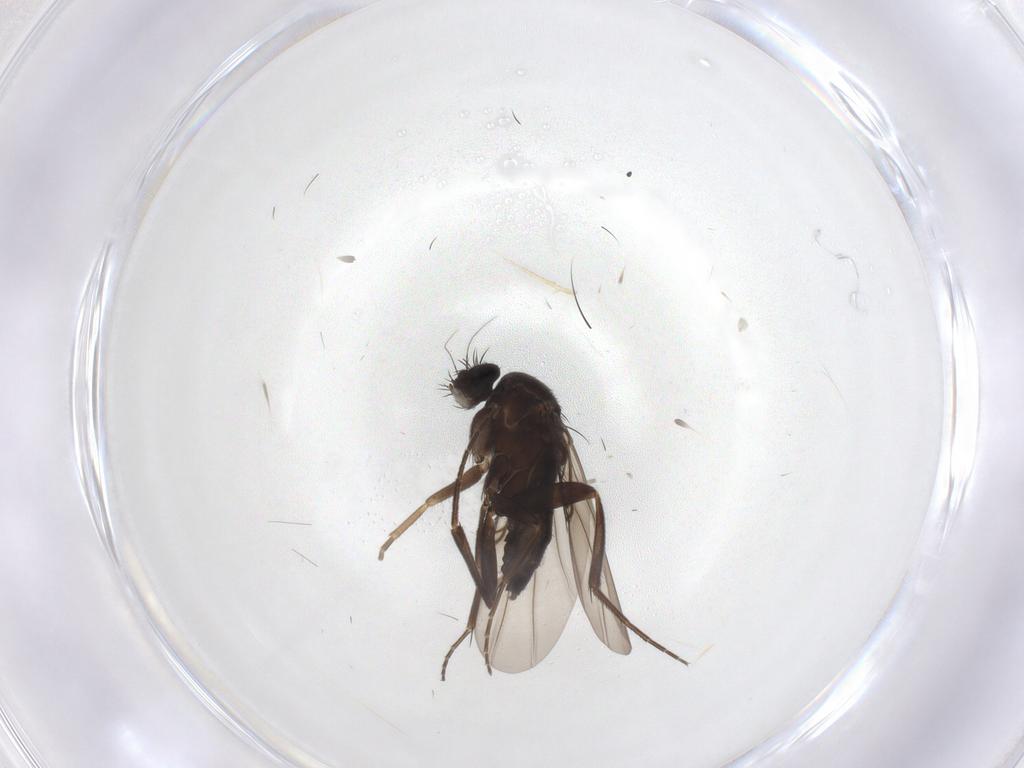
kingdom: Animalia
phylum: Arthropoda
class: Insecta
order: Diptera
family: Phoridae
